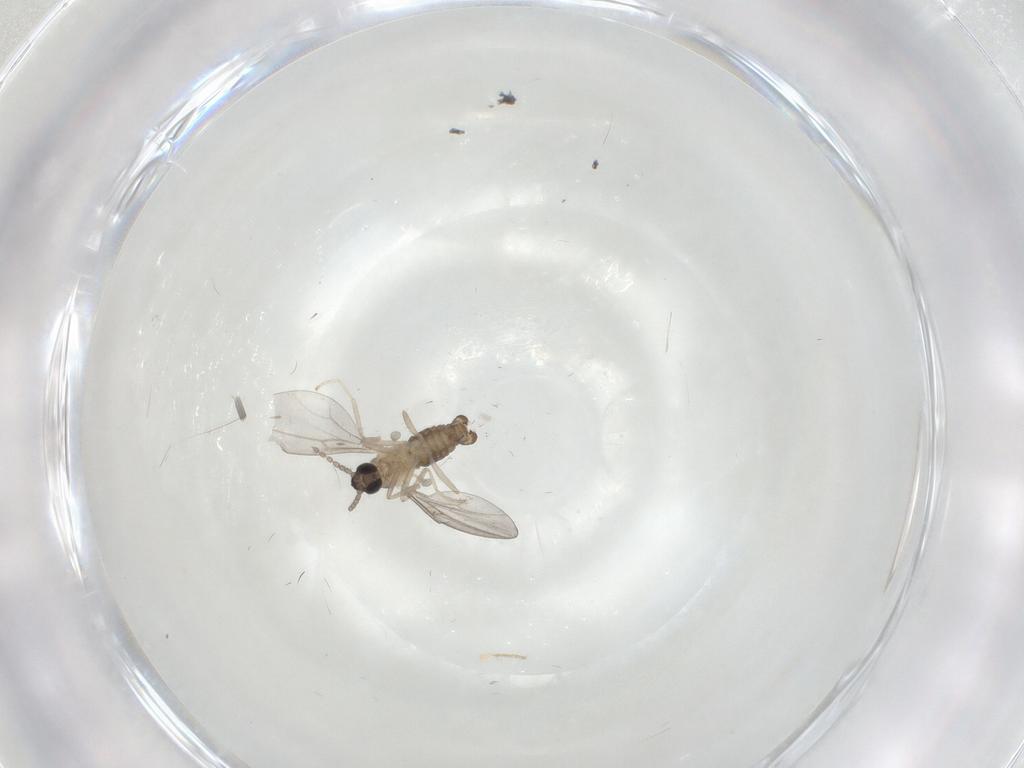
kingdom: Animalia
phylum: Arthropoda
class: Insecta
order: Diptera
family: Cecidomyiidae
